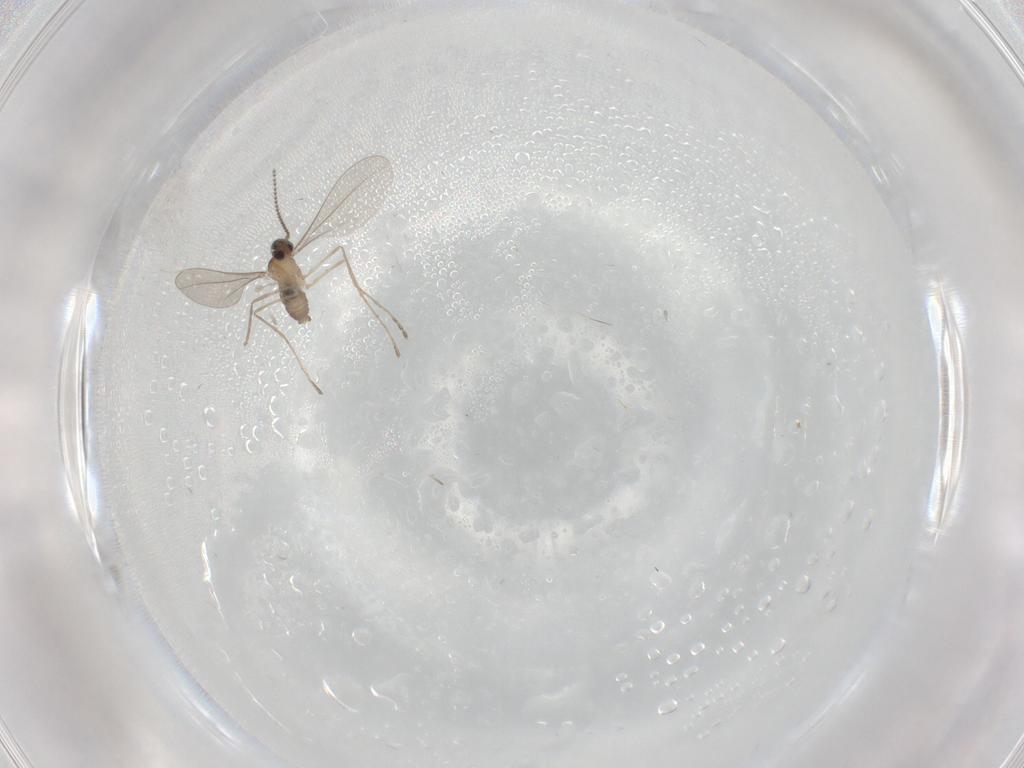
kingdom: Animalia
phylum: Arthropoda
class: Insecta
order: Diptera
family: Cecidomyiidae
